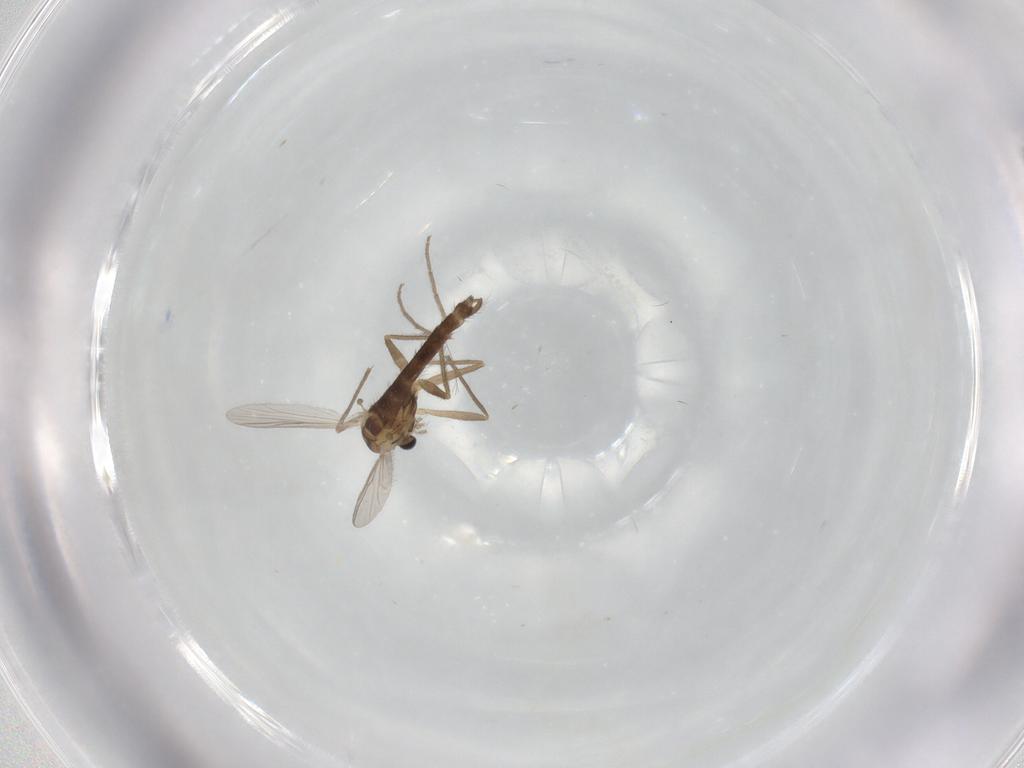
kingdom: Animalia
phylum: Arthropoda
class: Insecta
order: Diptera
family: Chironomidae
